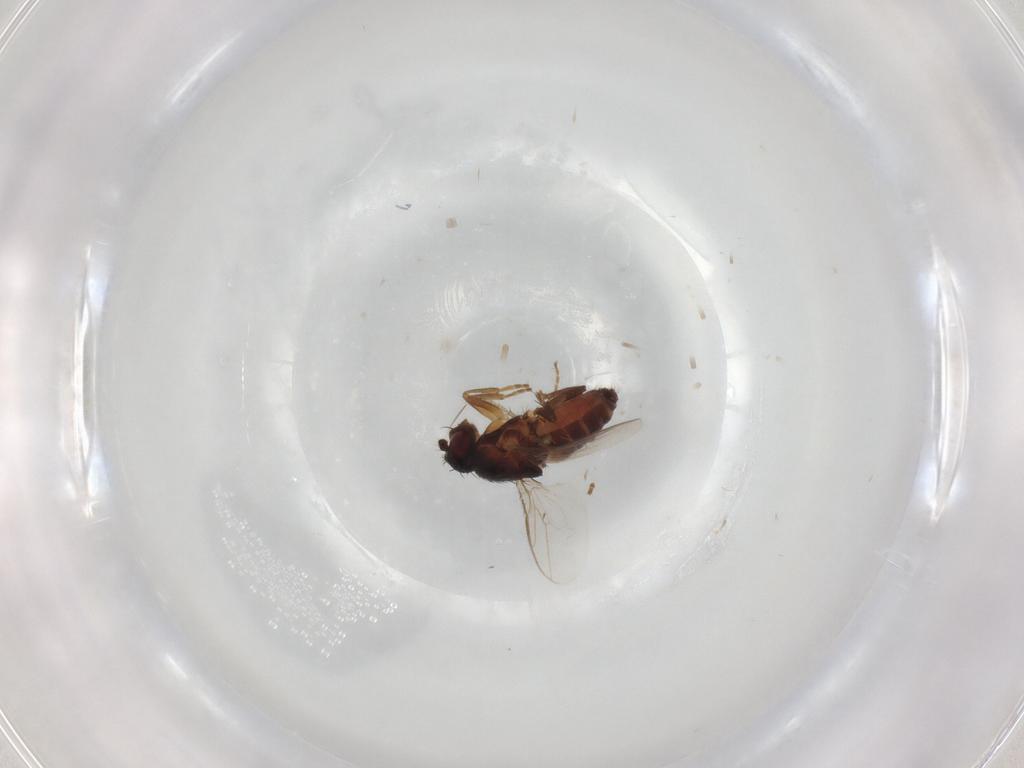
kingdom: Animalia
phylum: Arthropoda
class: Insecta
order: Diptera
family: Sphaeroceridae
